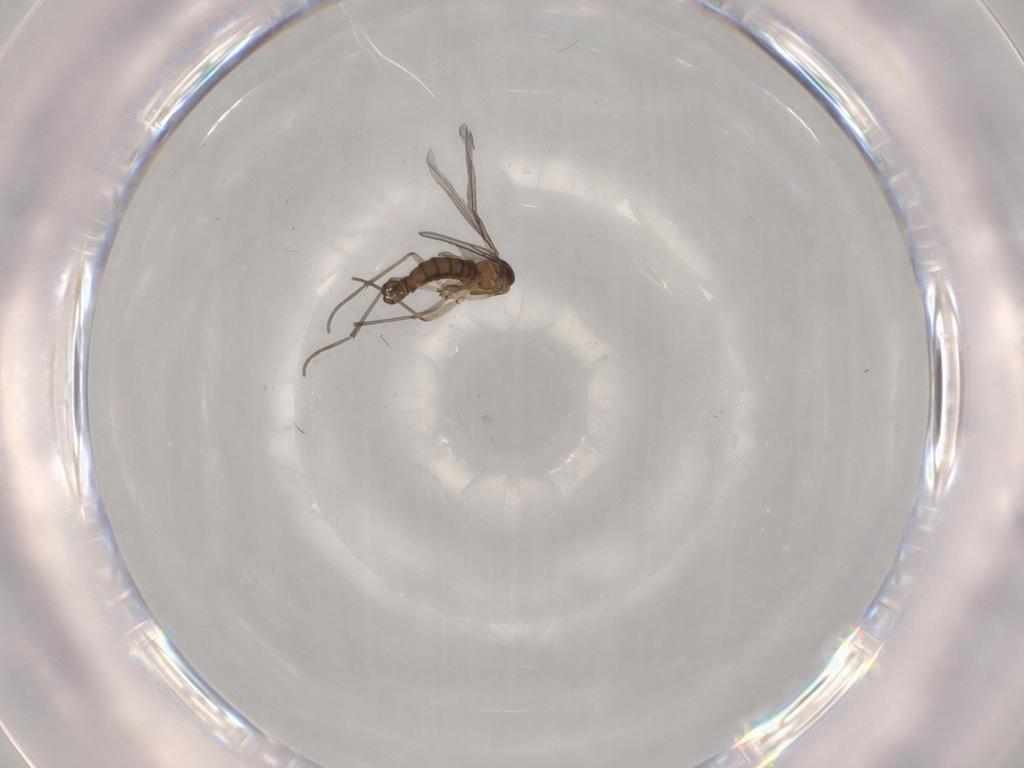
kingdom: Animalia
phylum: Arthropoda
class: Insecta
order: Diptera
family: Sciaridae
